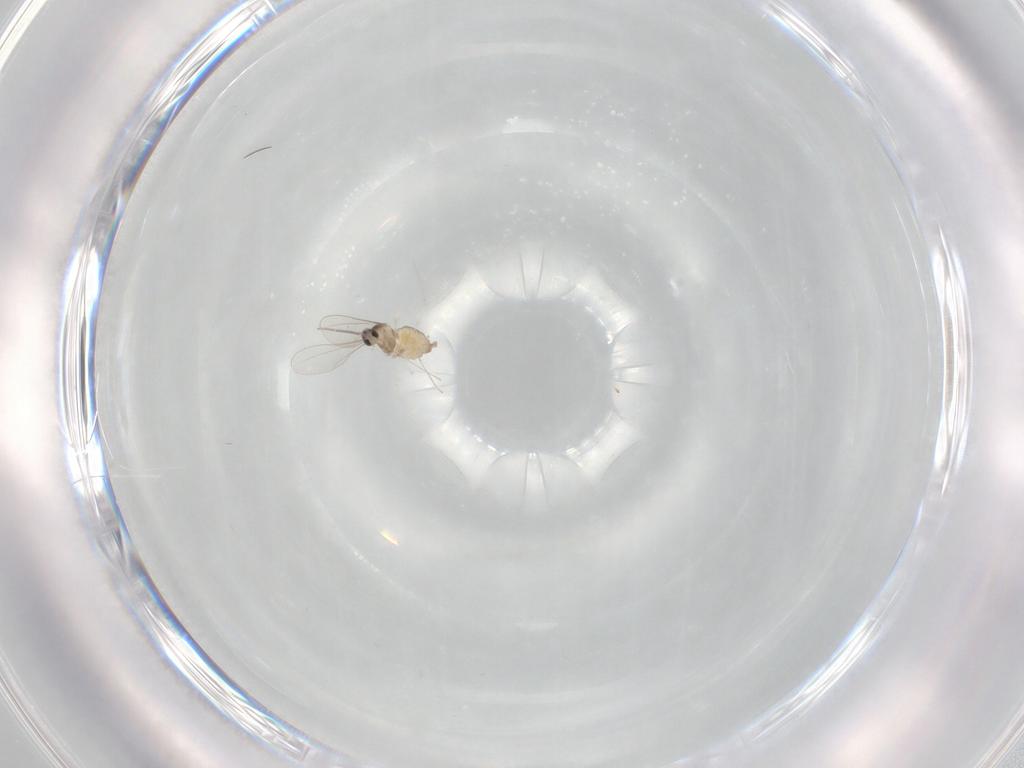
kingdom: Animalia
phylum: Arthropoda
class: Insecta
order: Diptera
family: Cecidomyiidae
